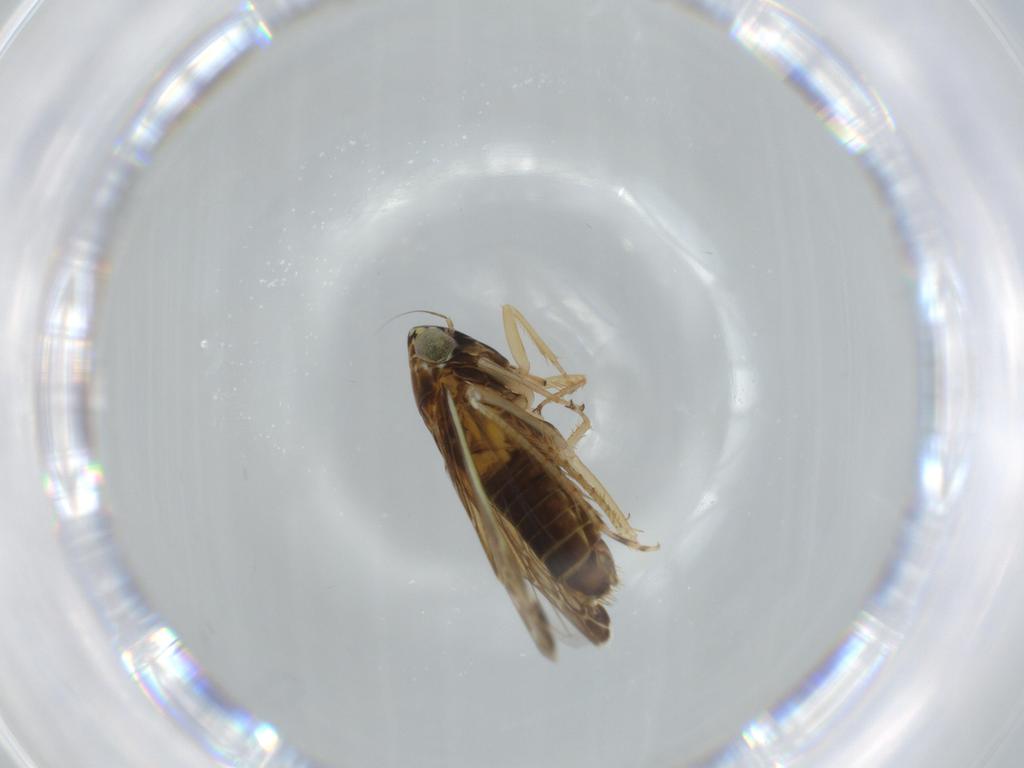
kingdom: Animalia
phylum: Arthropoda
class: Insecta
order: Hemiptera
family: Cicadellidae
